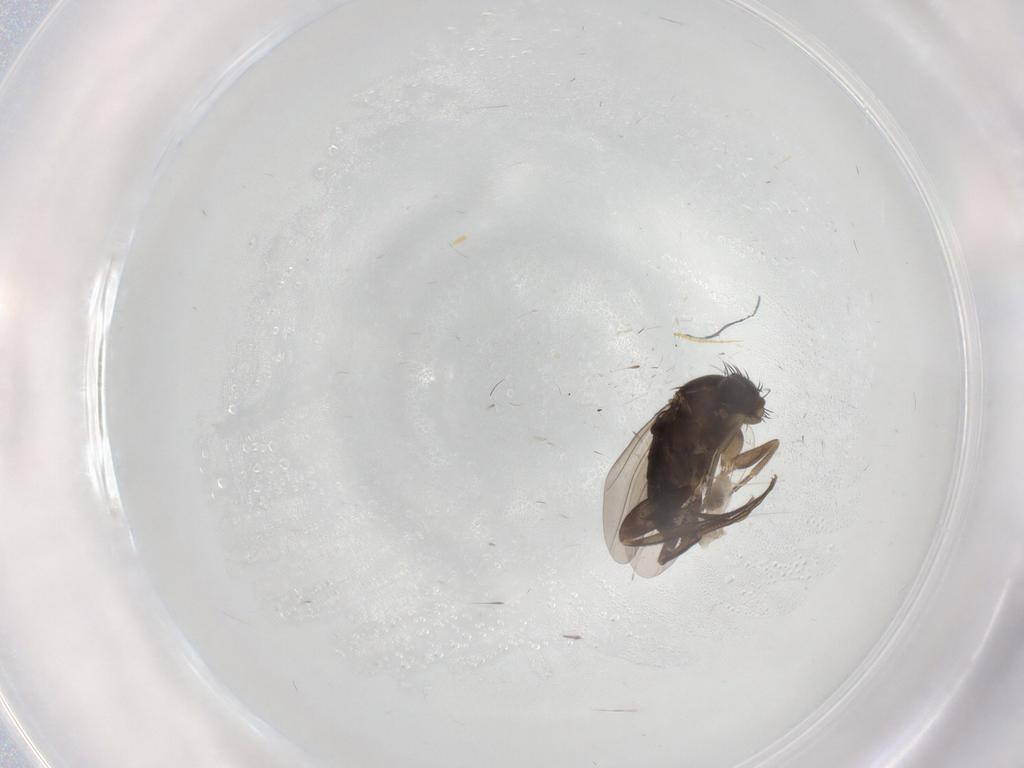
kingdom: Animalia
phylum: Arthropoda
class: Insecta
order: Diptera
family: Cecidomyiidae
